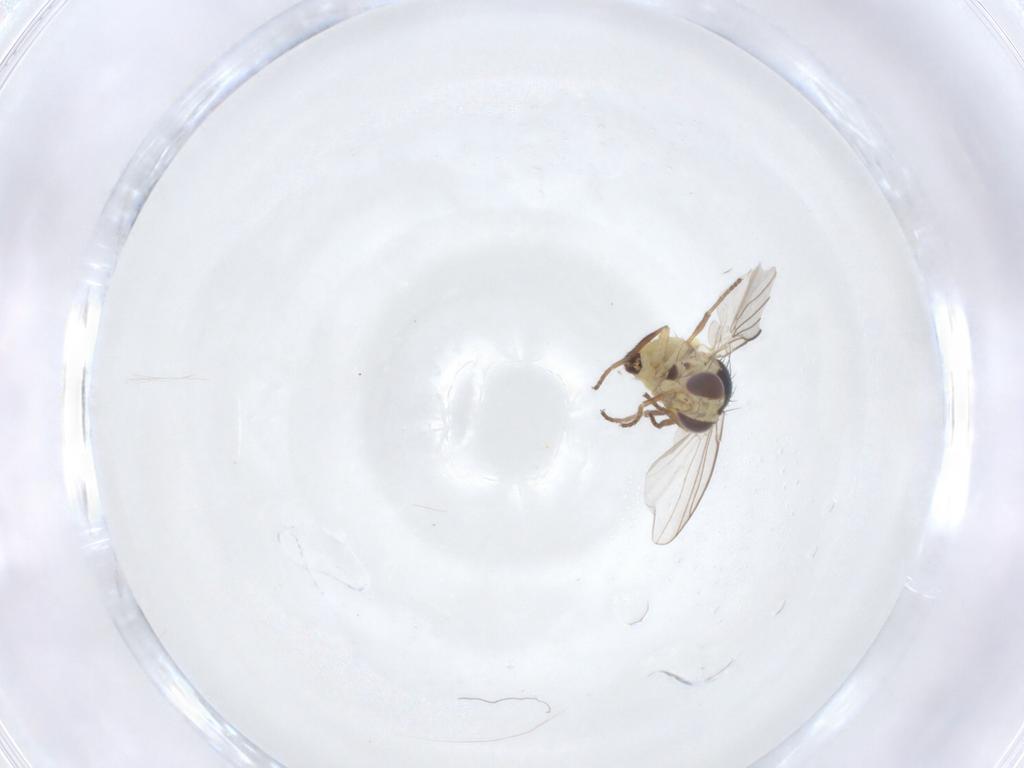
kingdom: Animalia
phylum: Arthropoda
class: Insecta
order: Diptera
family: Agromyzidae
